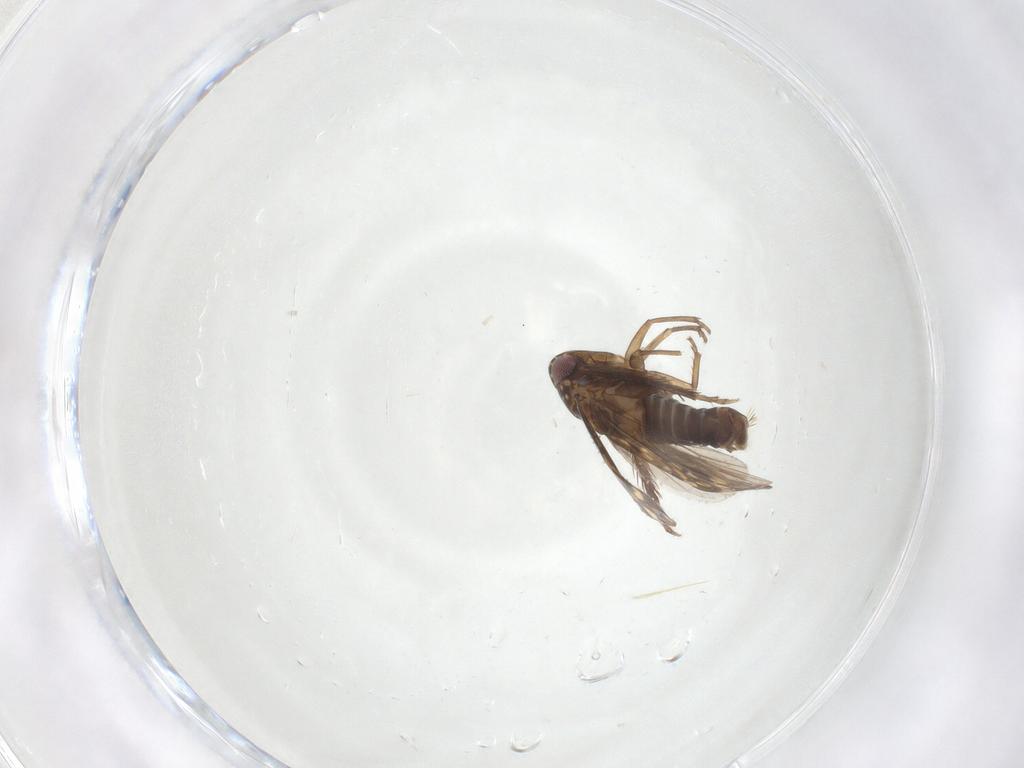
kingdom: Animalia
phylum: Arthropoda
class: Insecta
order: Hemiptera
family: Cicadellidae
